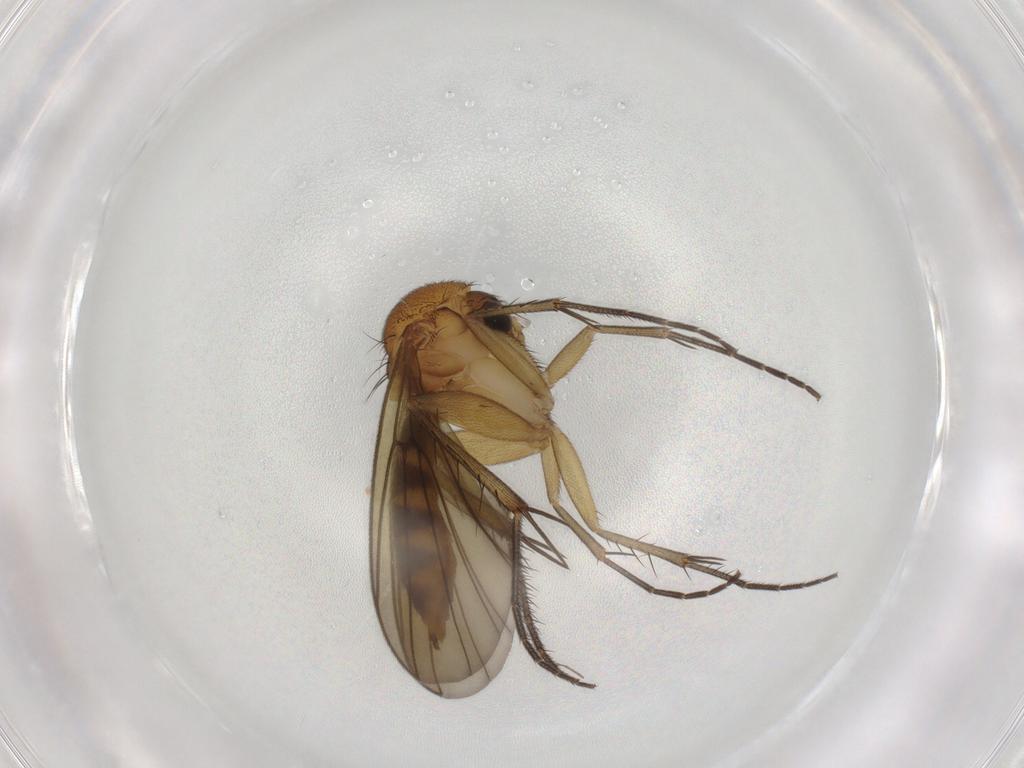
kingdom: Animalia
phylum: Arthropoda
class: Insecta
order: Diptera
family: Mycetophilidae
